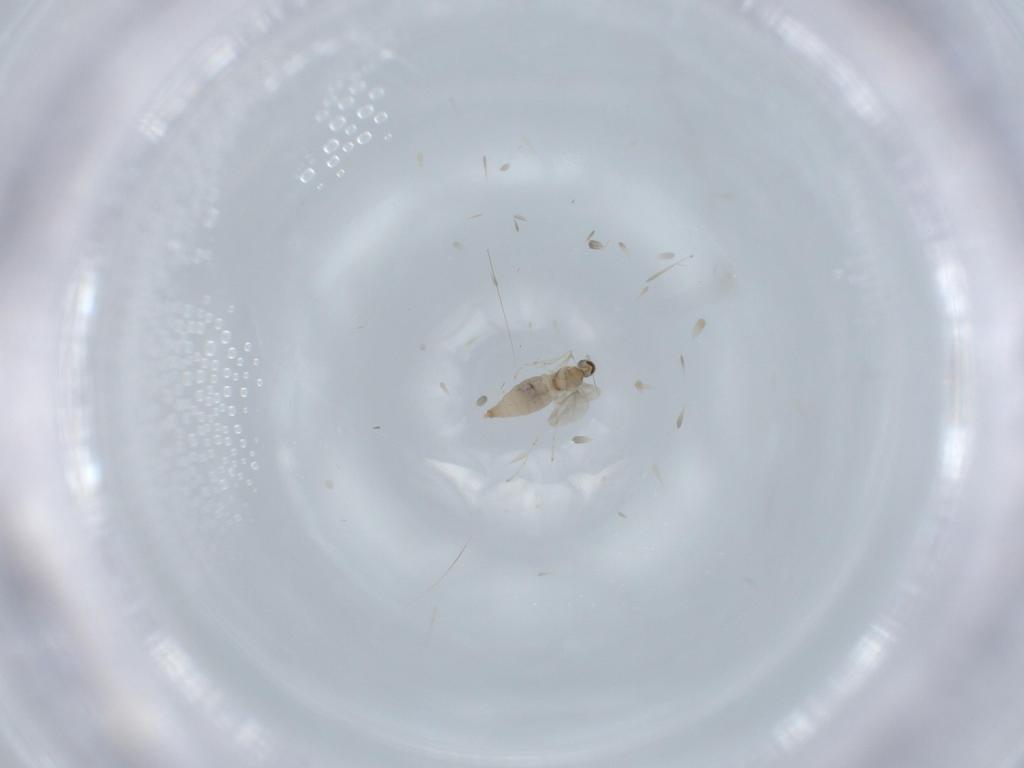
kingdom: Animalia
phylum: Arthropoda
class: Insecta
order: Diptera
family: Cecidomyiidae
